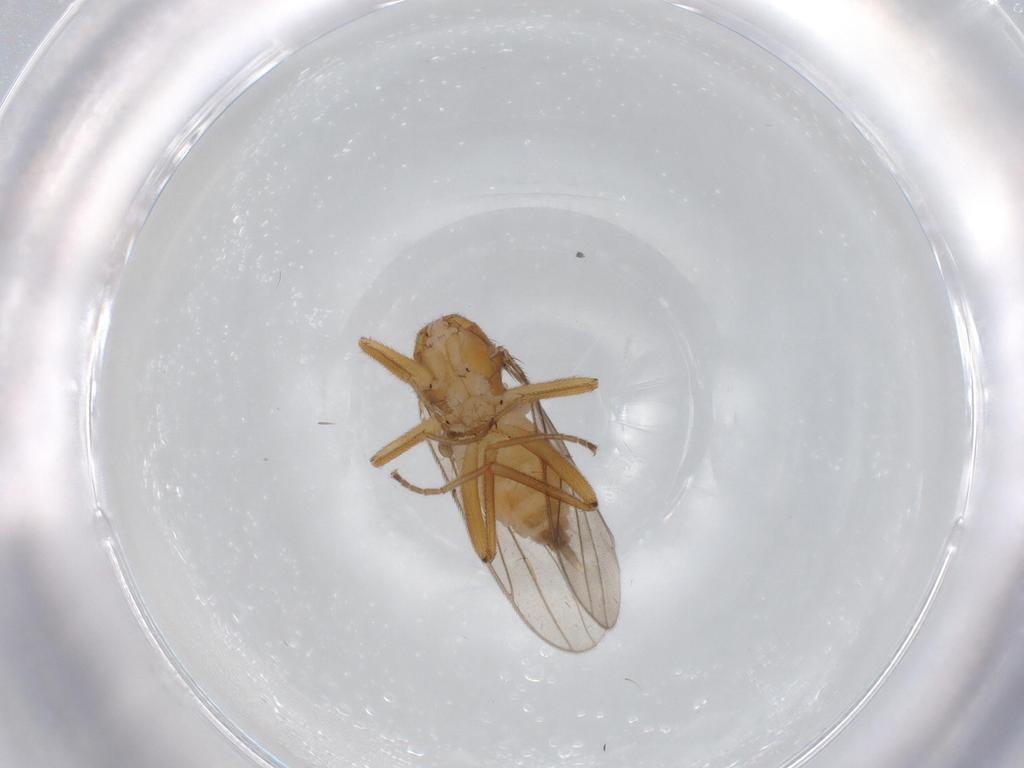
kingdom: Animalia
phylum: Arthropoda
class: Insecta
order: Diptera
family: Hybotidae
